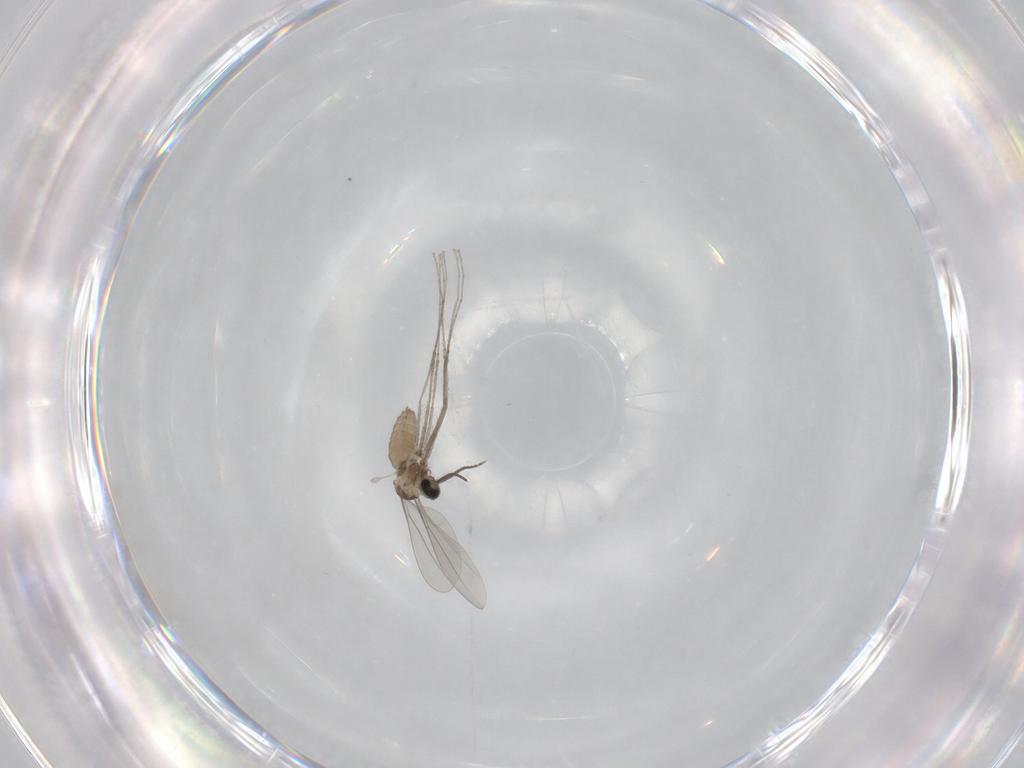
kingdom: Animalia
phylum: Arthropoda
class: Insecta
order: Diptera
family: Cecidomyiidae
